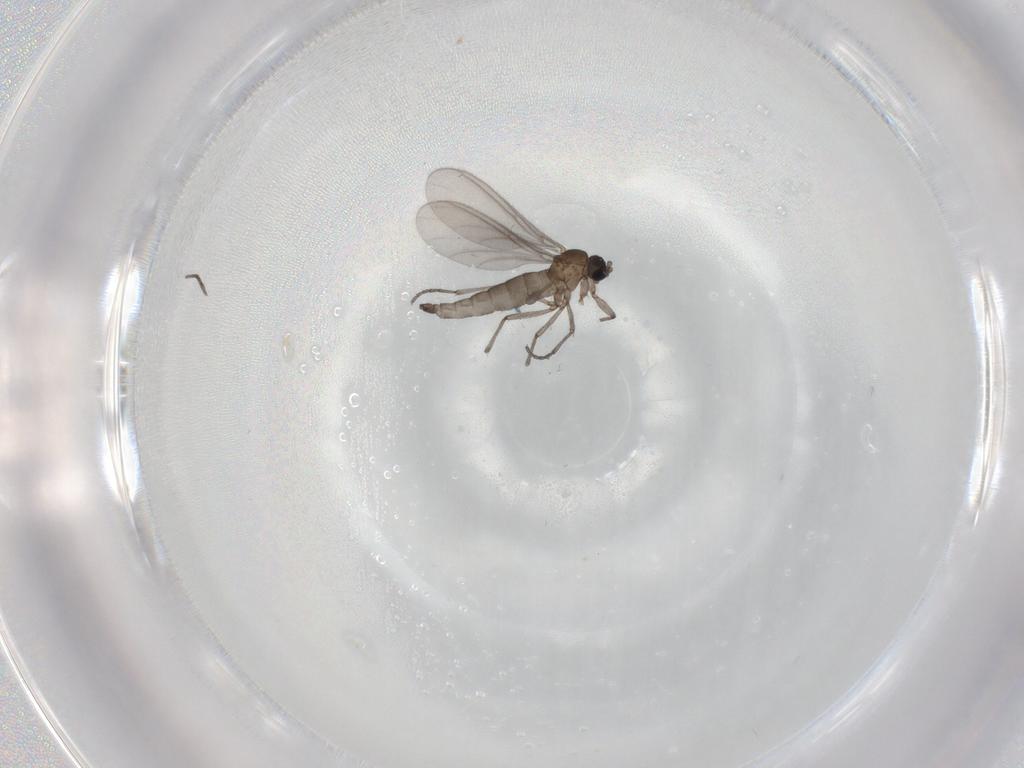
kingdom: Animalia
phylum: Arthropoda
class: Insecta
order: Diptera
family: Sciaridae
